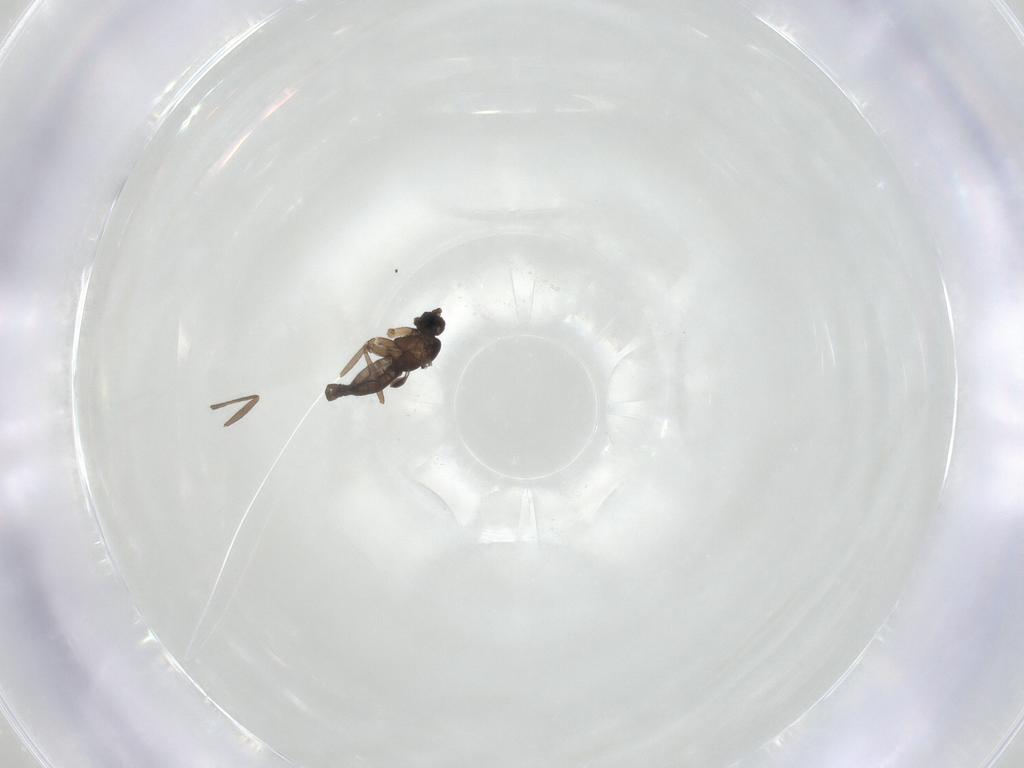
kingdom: Animalia
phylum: Arthropoda
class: Insecta
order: Diptera
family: Sciaridae
